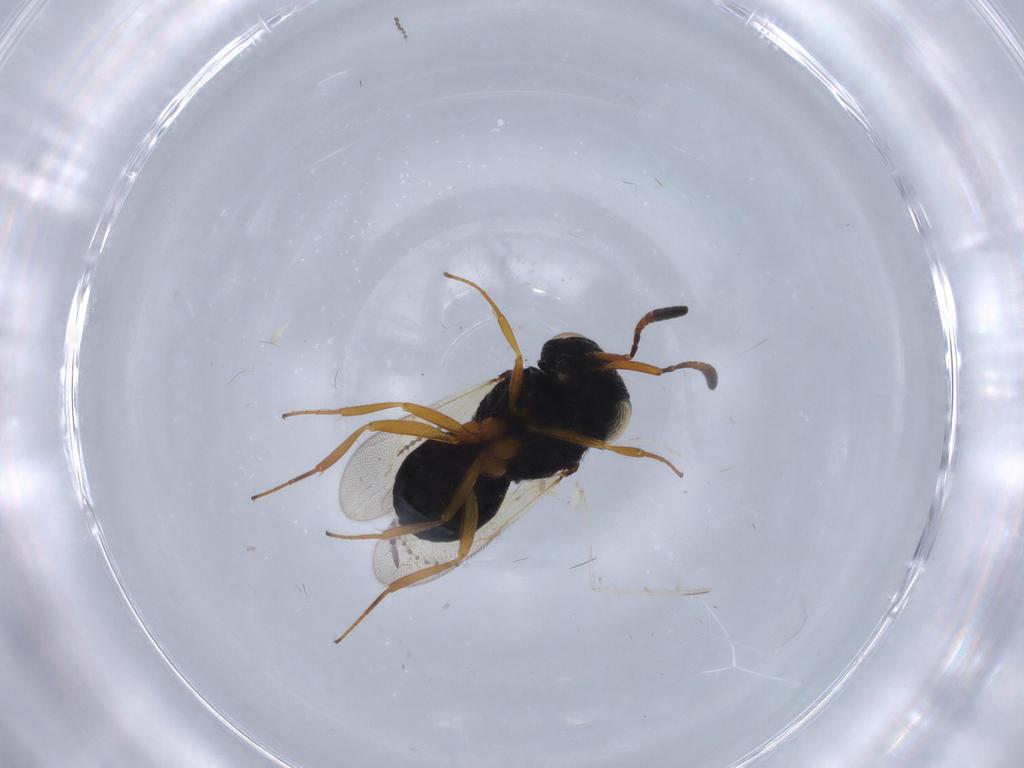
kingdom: Animalia
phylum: Arthropoda
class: Insecta
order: Hymenoptera
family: Scelionidae
